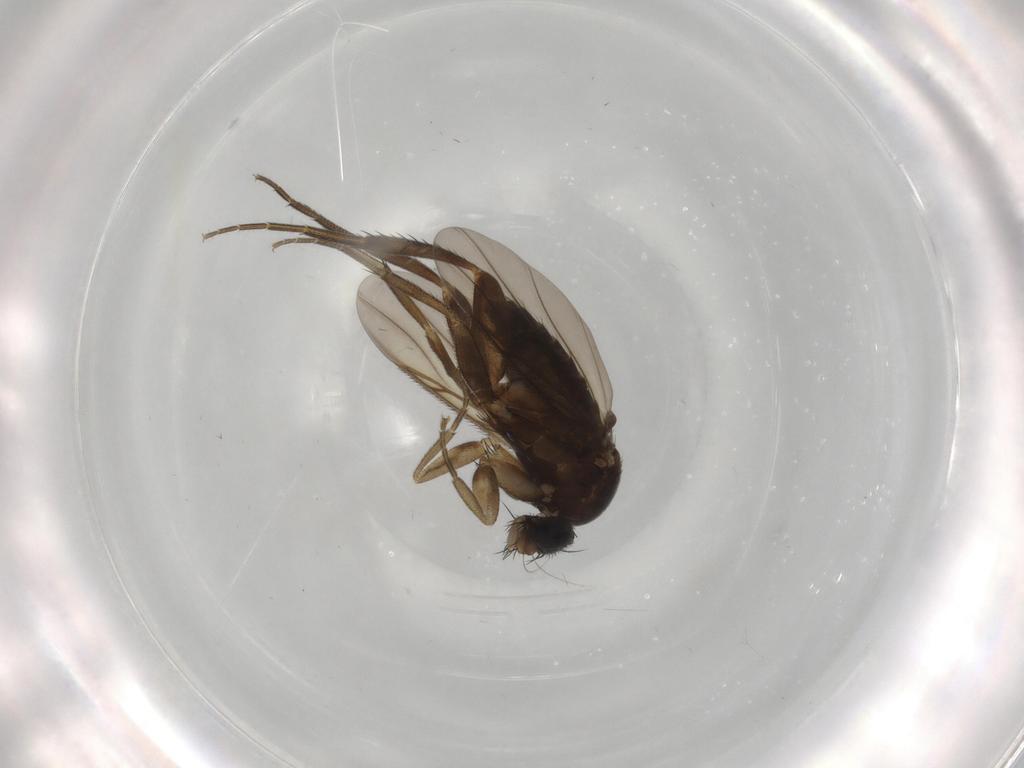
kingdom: Animalia
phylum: Arthropoda
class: Insecta
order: Diptera
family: Phoridae
